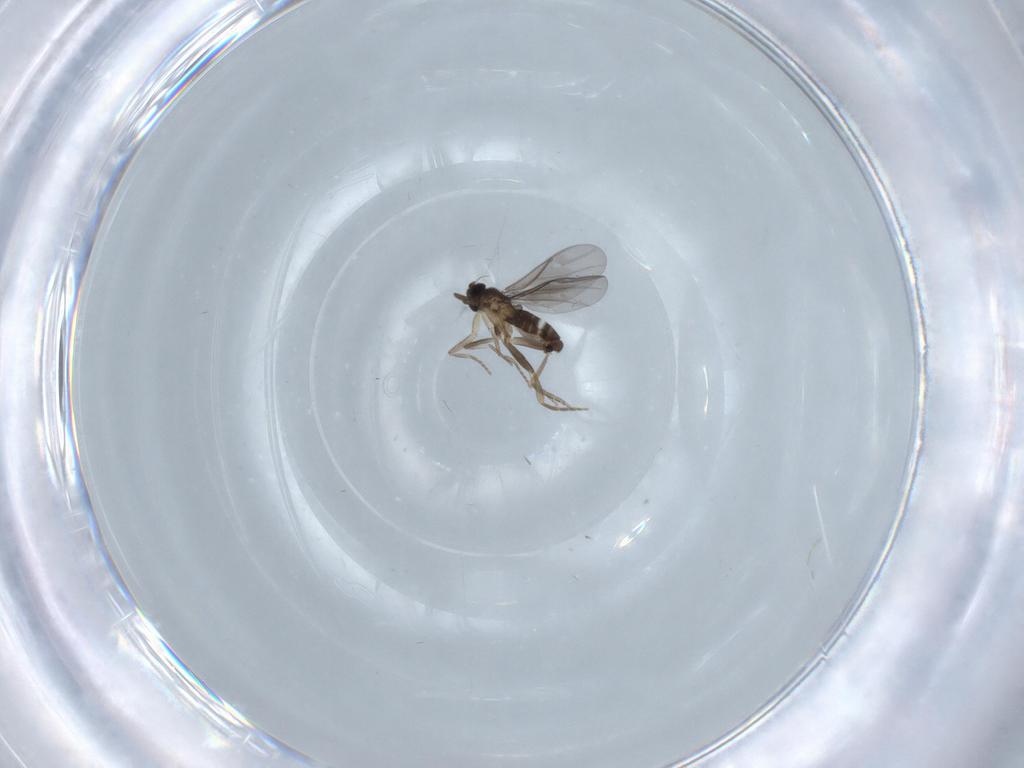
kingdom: Animalia
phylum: Arthropoda
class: Insecta
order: Diptera
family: Sciaridae
